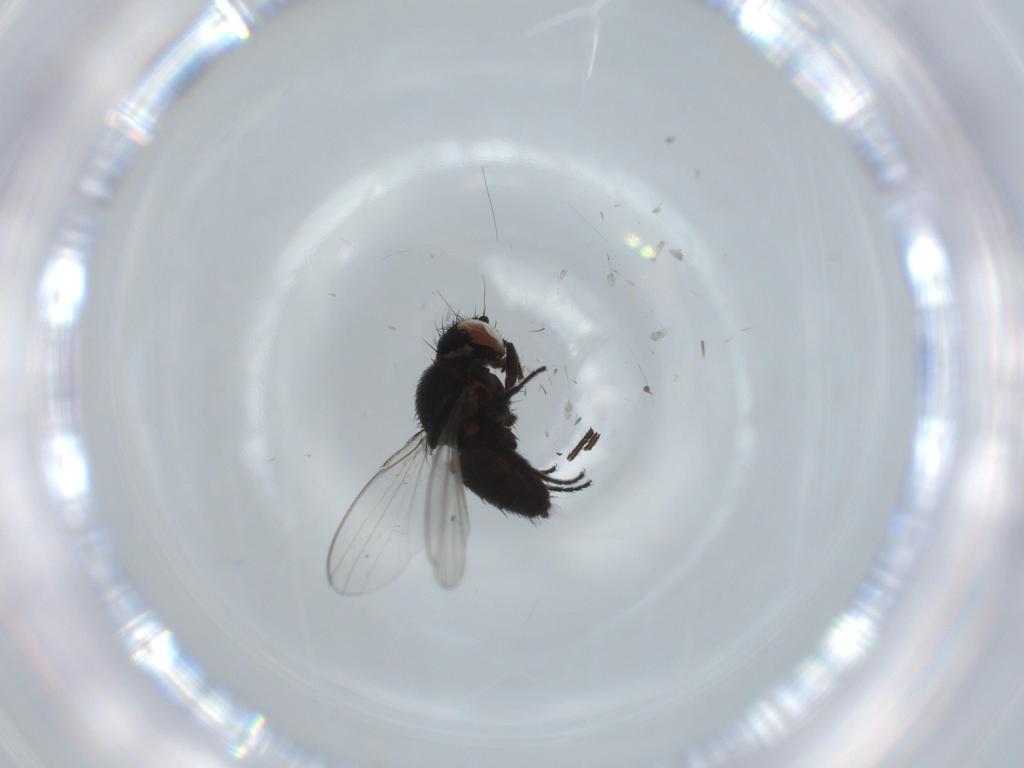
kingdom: Animalia
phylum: Arthropoda
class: Insecta
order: Diptera
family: Milichiidae
